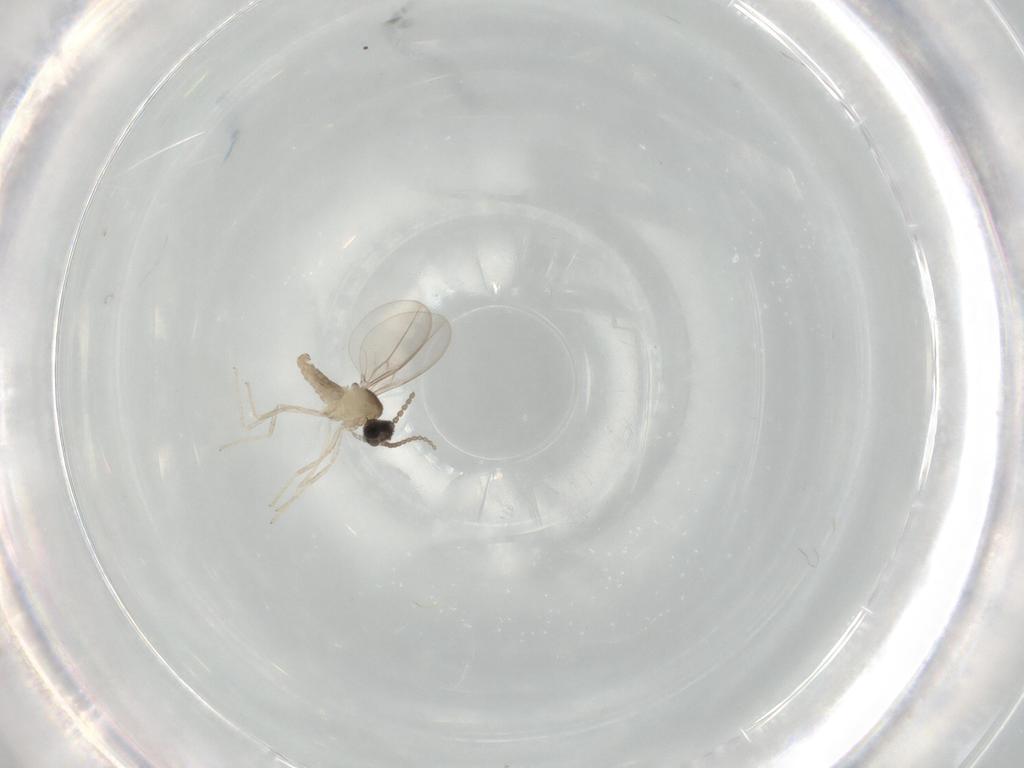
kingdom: Animalia
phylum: Arthropoda
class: Insecta
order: Diptera
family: Cecidomyiidae
